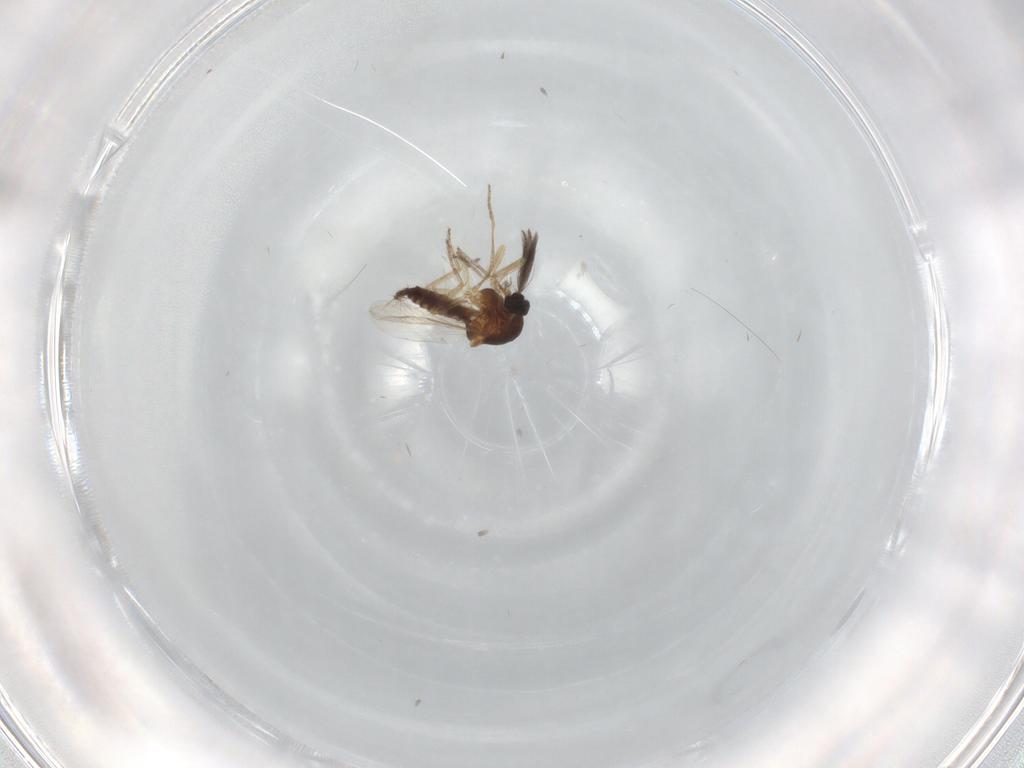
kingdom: Animalia
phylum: Arthropoda
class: Insecta
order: Diptera
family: Ceratopogonidae
